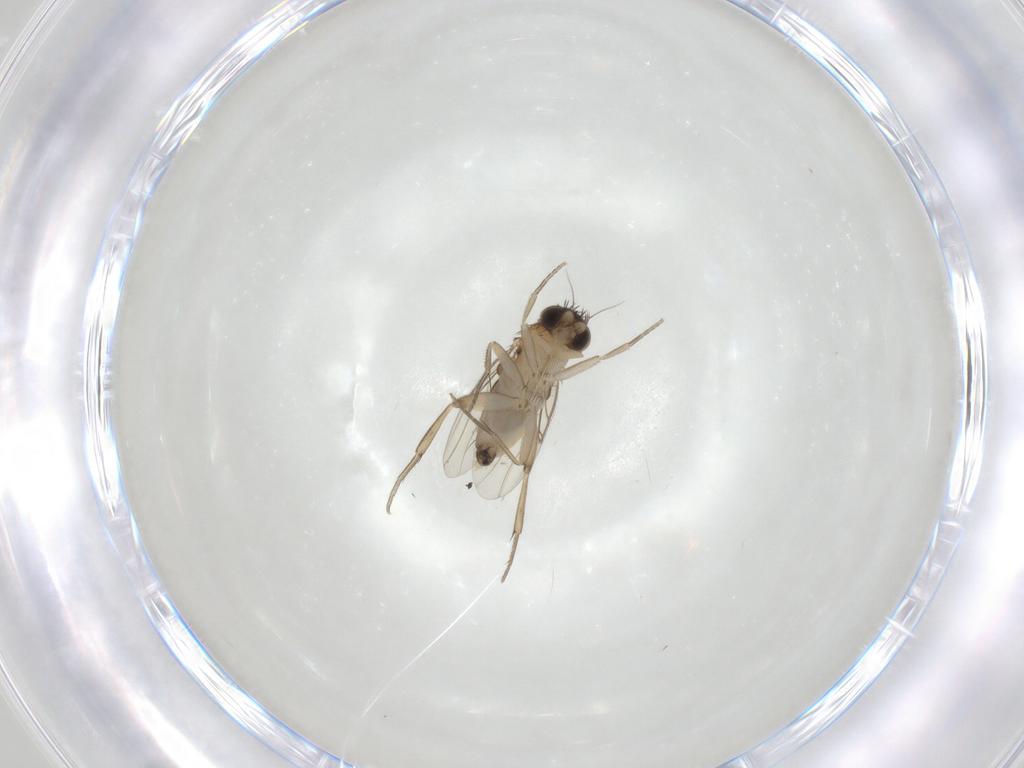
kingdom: Animalia
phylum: Arthropoda
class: Insecta
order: Diptera
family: Phoridae
